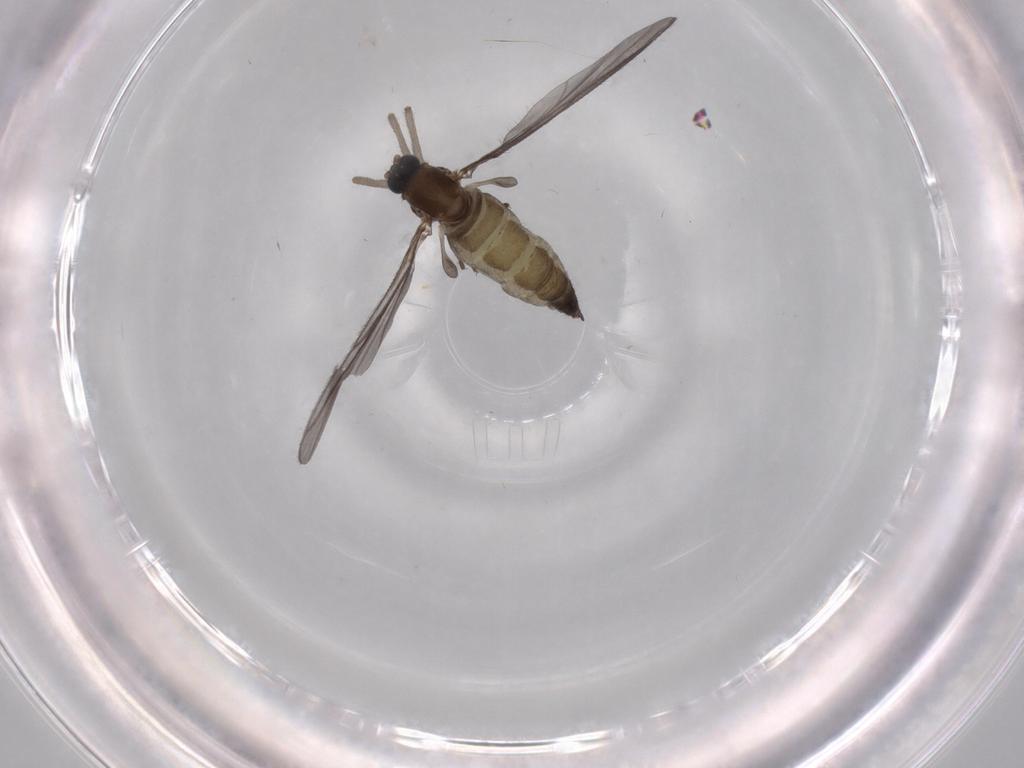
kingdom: Animalia
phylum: Arthropoda
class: Insecta
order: Diptera
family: Sciaridae
